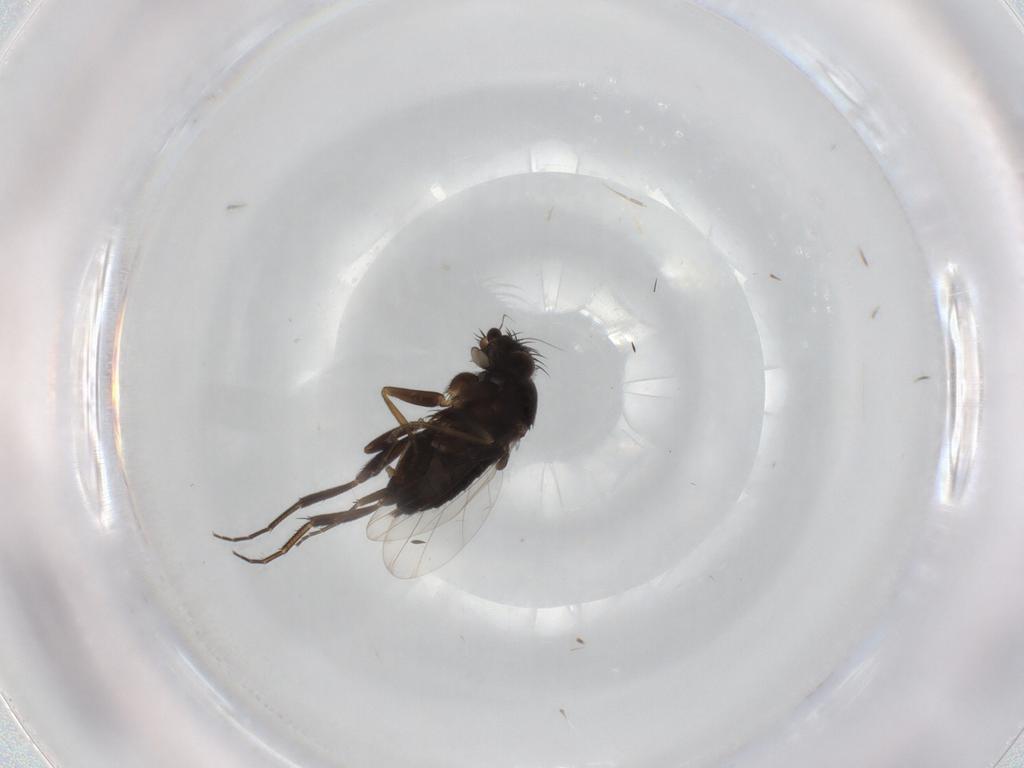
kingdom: Animalia
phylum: Arthropoda
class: Insecta
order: Diptera
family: Phoridae
